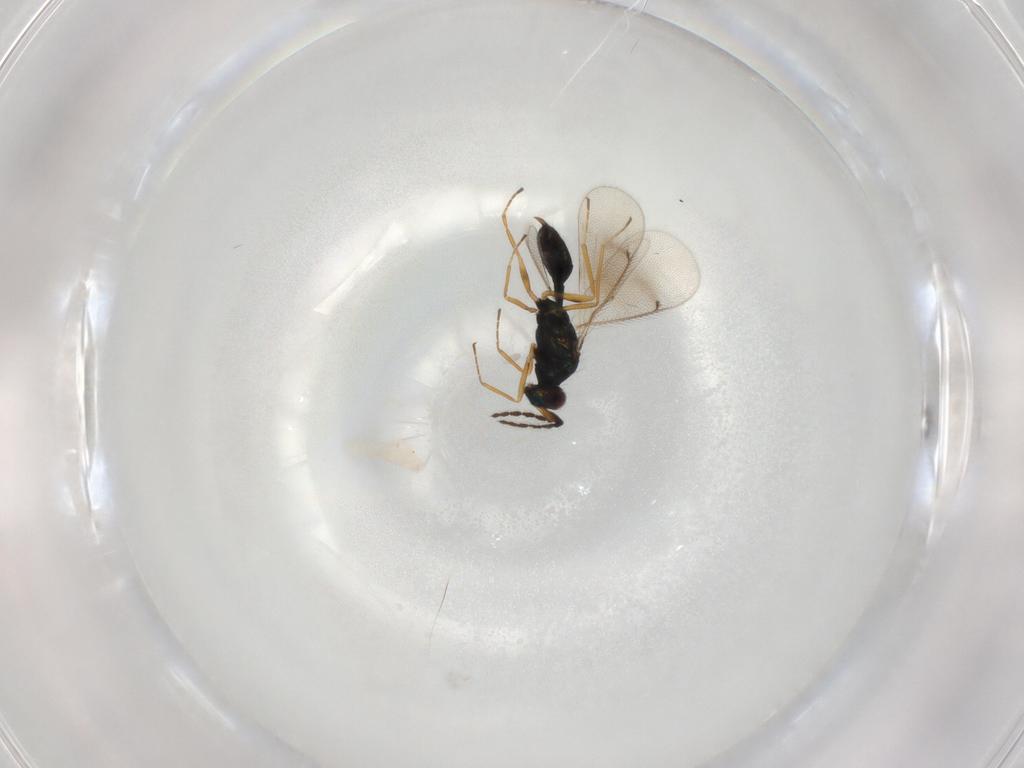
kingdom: Animalia
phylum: Arthropoda
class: Insecta
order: Hymenoptera
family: Eulophidae
